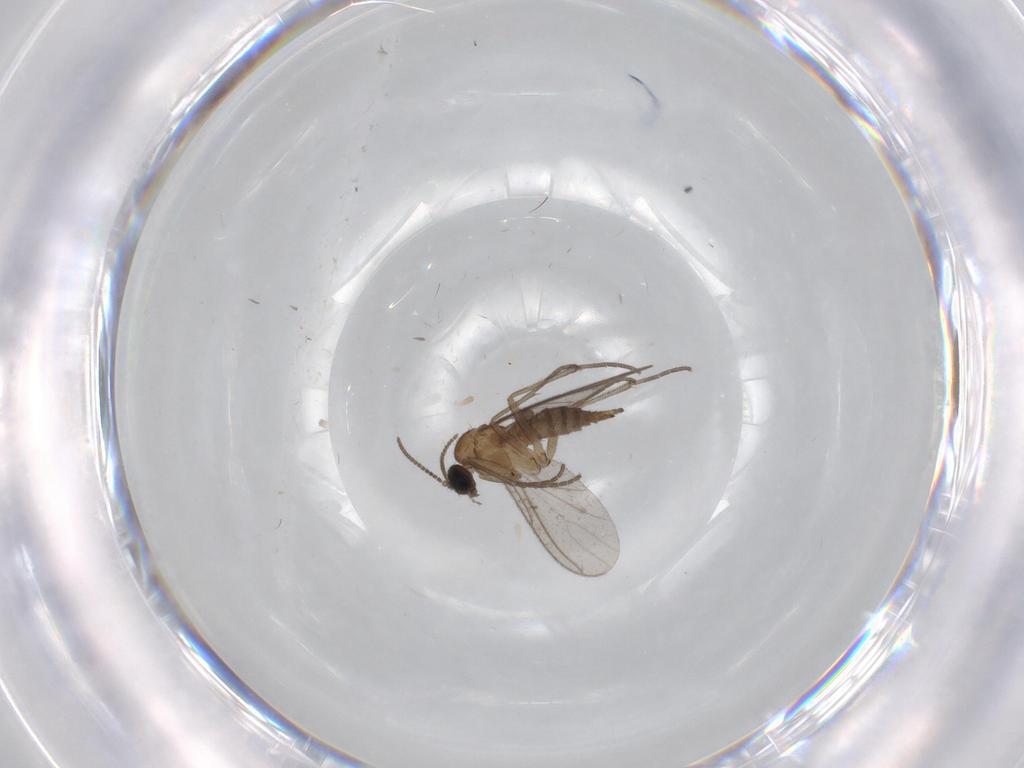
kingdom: Animalia
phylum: Arthropoda
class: Insecta
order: Diptera
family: Sciaridae
